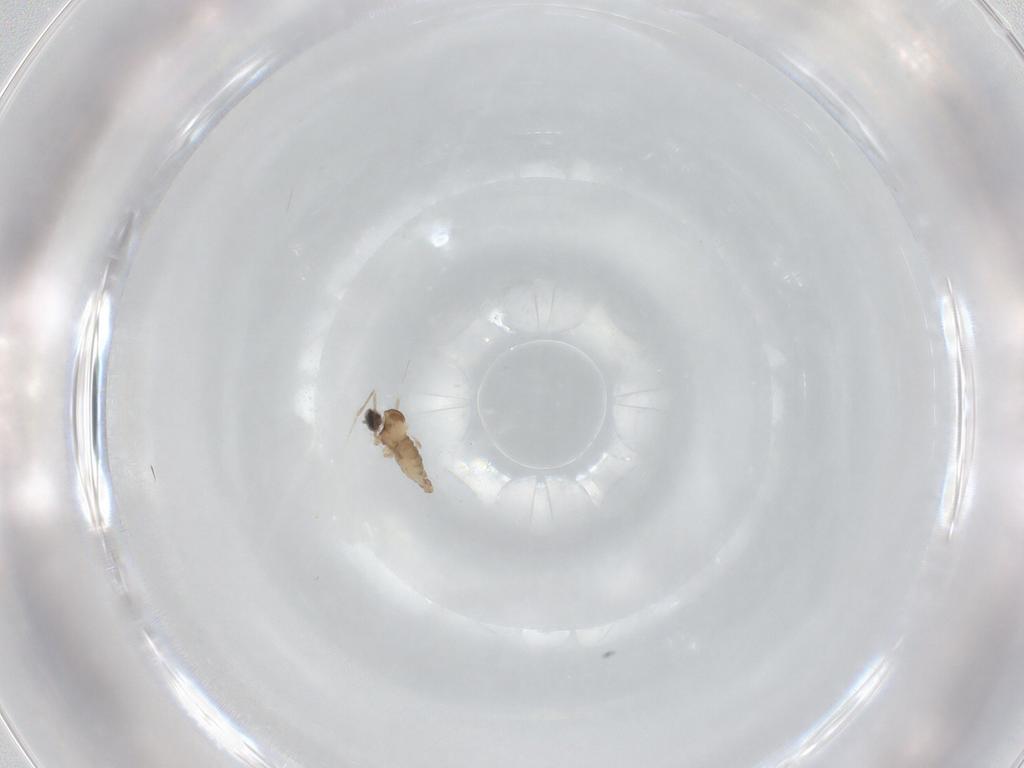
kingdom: Animalia
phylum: Arthropoda
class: Insecta
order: Diptera
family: Cecidomyiidae
